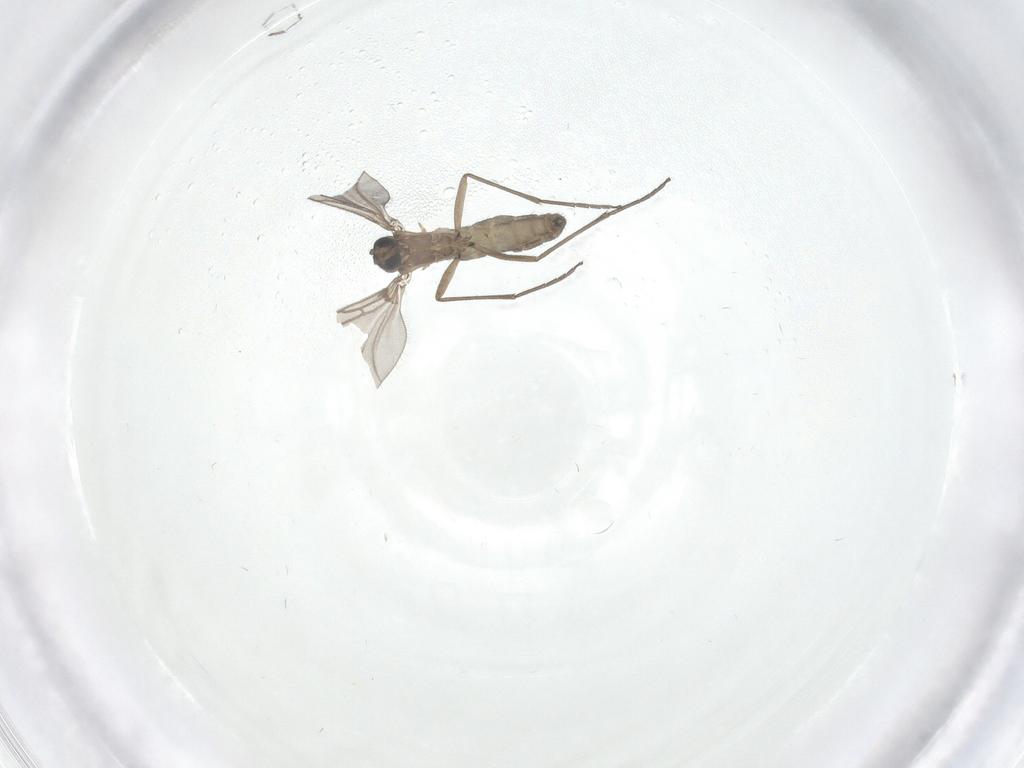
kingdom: Animalia
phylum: Arthropoda
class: Insecta
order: Diptera
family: Sciaridae
